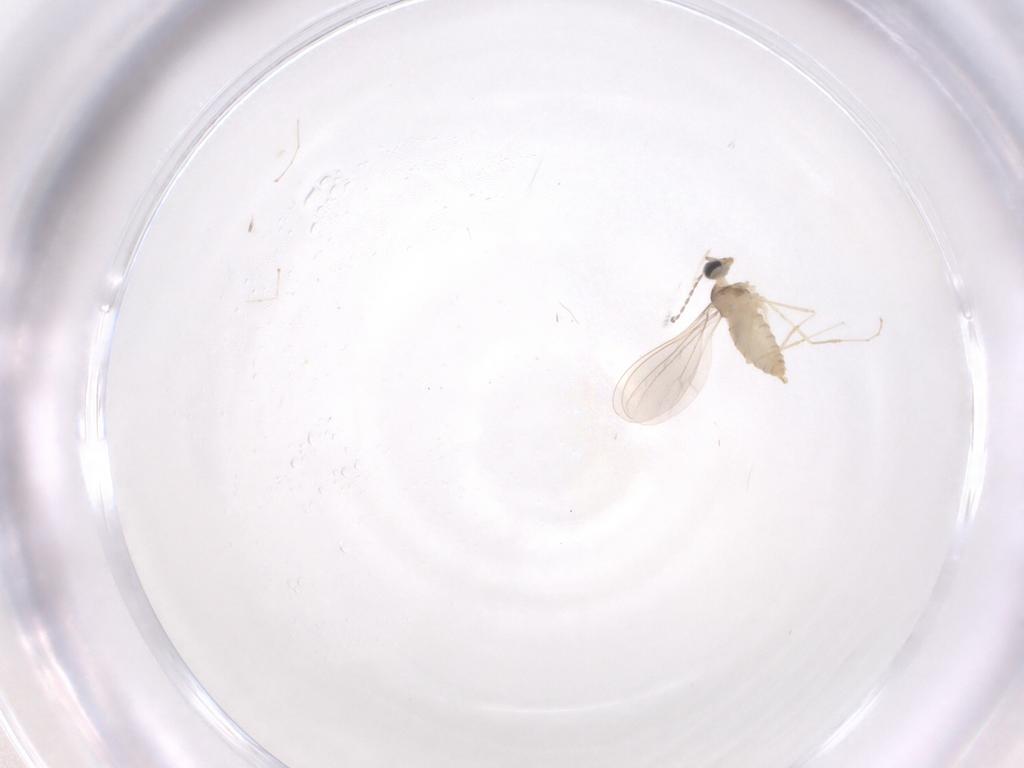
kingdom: Animalia
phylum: Arthropoda
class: Insecta
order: Diptera
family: Cecidomyiidae
